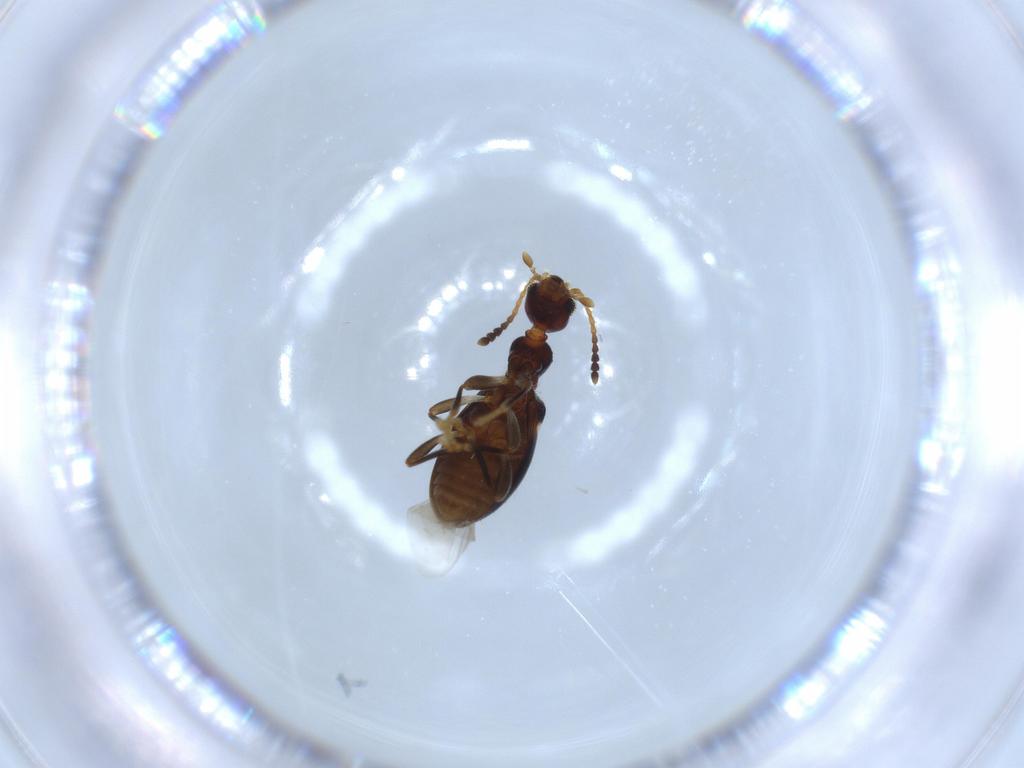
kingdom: Animalia
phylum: Arthropoda
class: Insecta
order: Coleoptera
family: Anthicidae
